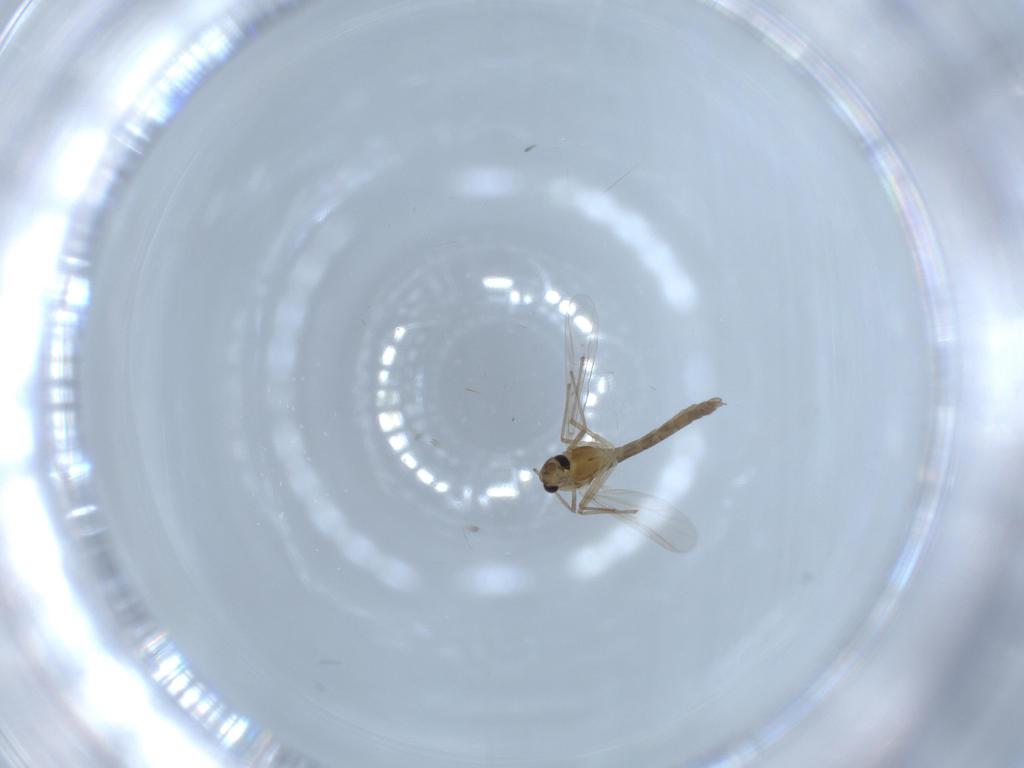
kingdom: Animalia
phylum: Arthropoda
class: Insecta
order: Diptera
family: Chironomidae
